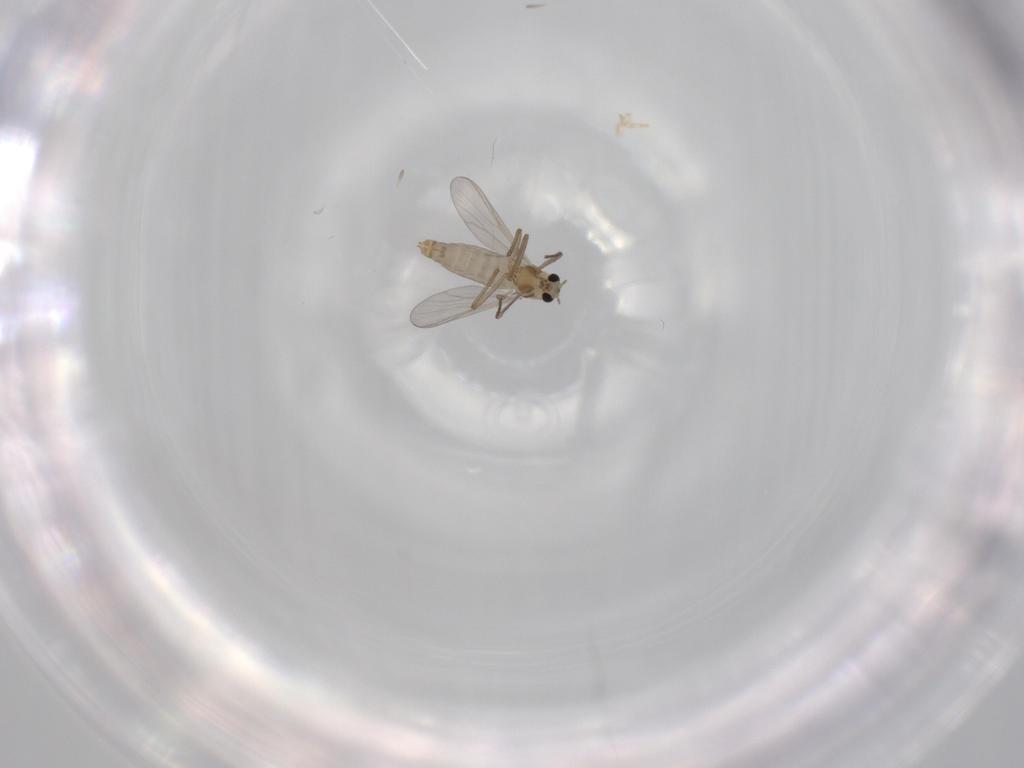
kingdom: Animalia
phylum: Arthropoda
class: Insecta
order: Diptera
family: Chironomidae
